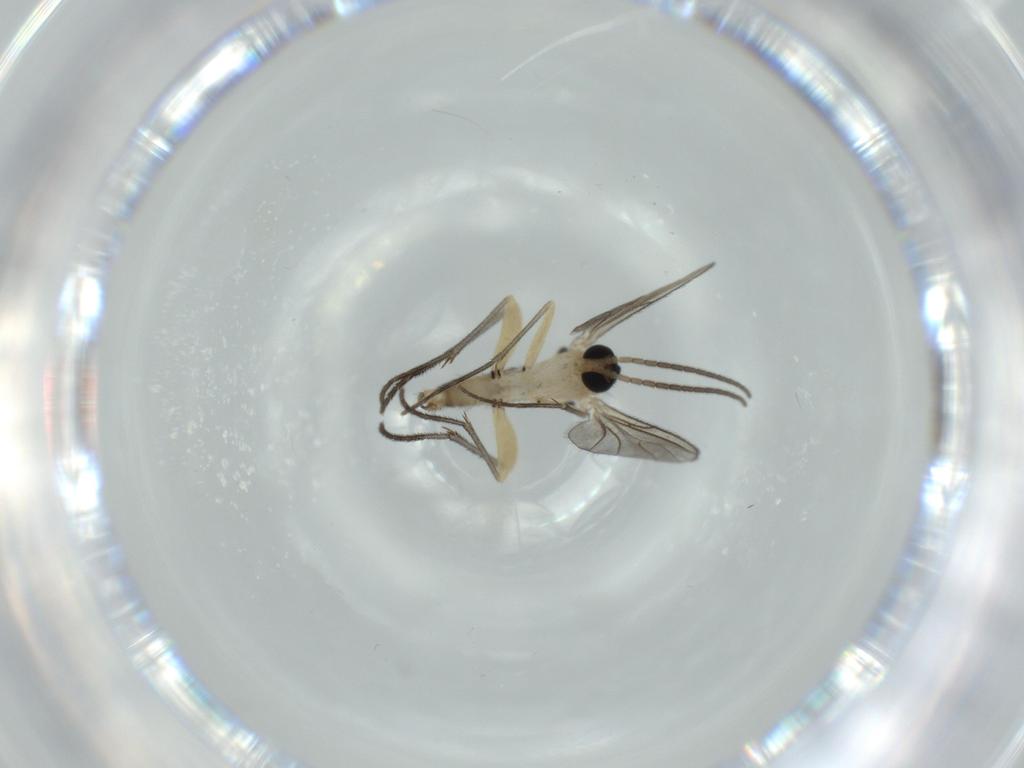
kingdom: Animalia
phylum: Arthropoda
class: Insecta
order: Diptera
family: Sciaridae
